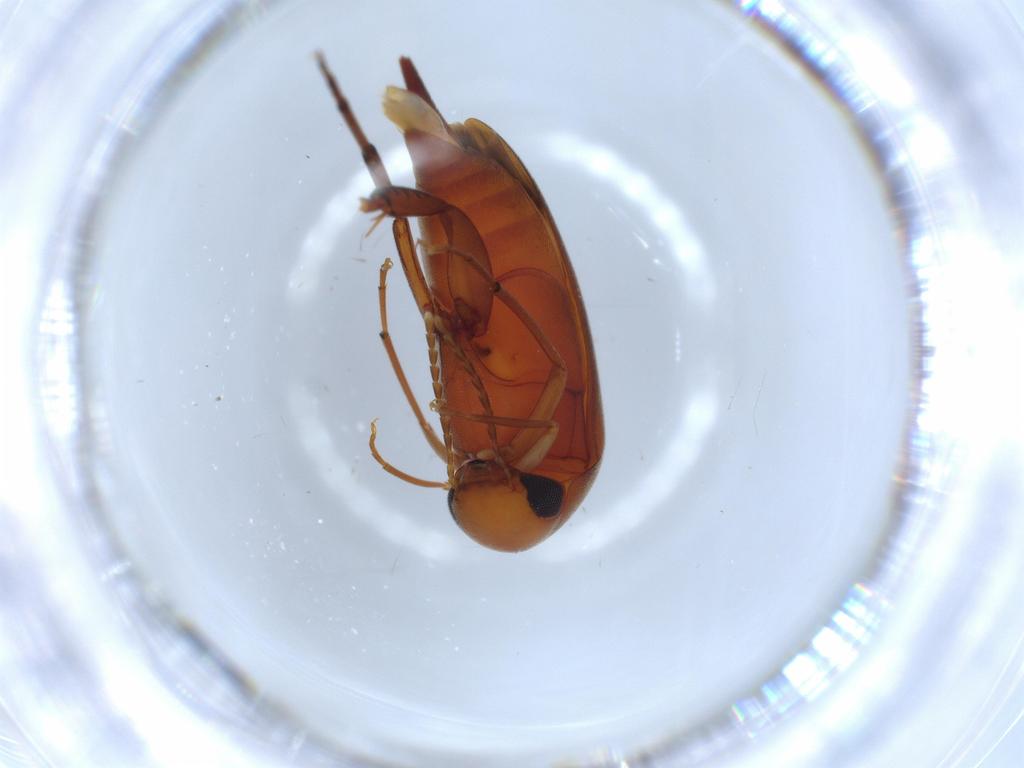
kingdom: Animalia
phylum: Arthropoda
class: Insecta
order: Coleoptera
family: Mordellidae
